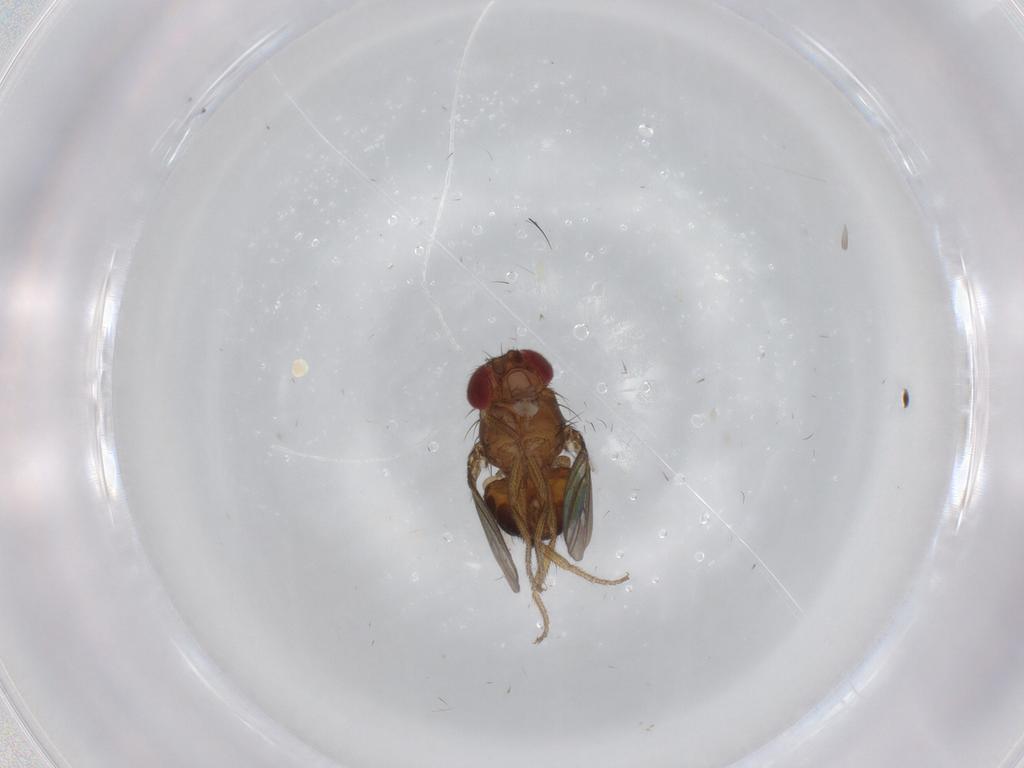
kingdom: Animalia
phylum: Arthropoda
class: Insecta
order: Diptera
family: Drosophilidae
